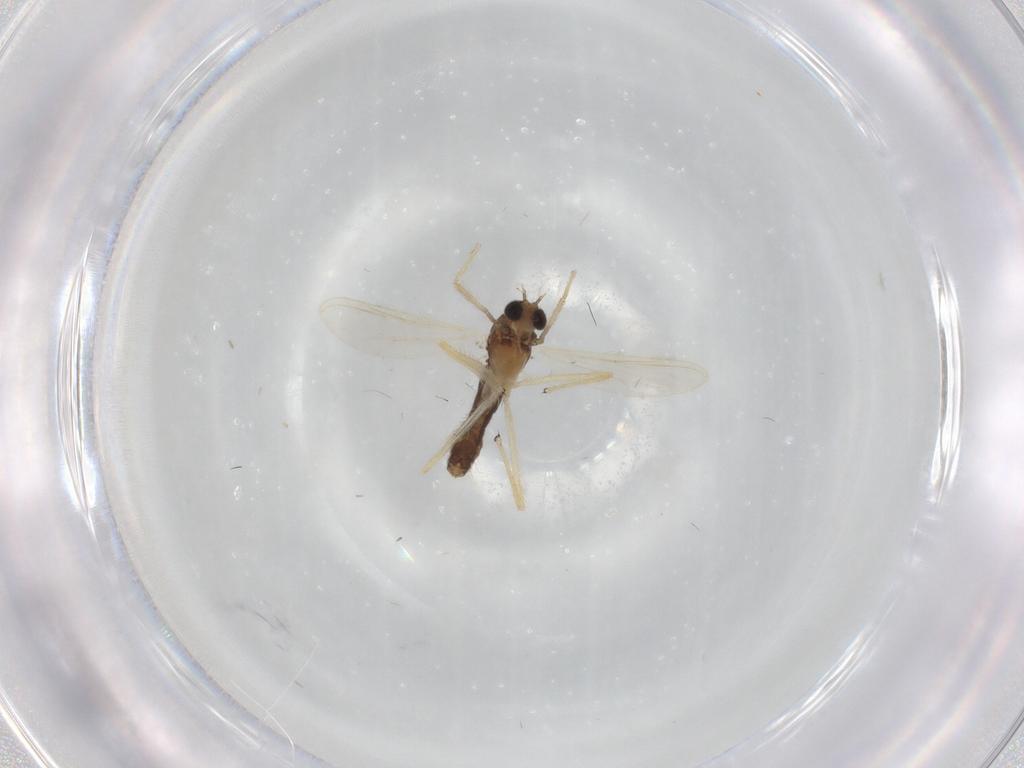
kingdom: Animalia
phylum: Arthropoda
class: Insecta
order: Diptera
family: Chironomidae
